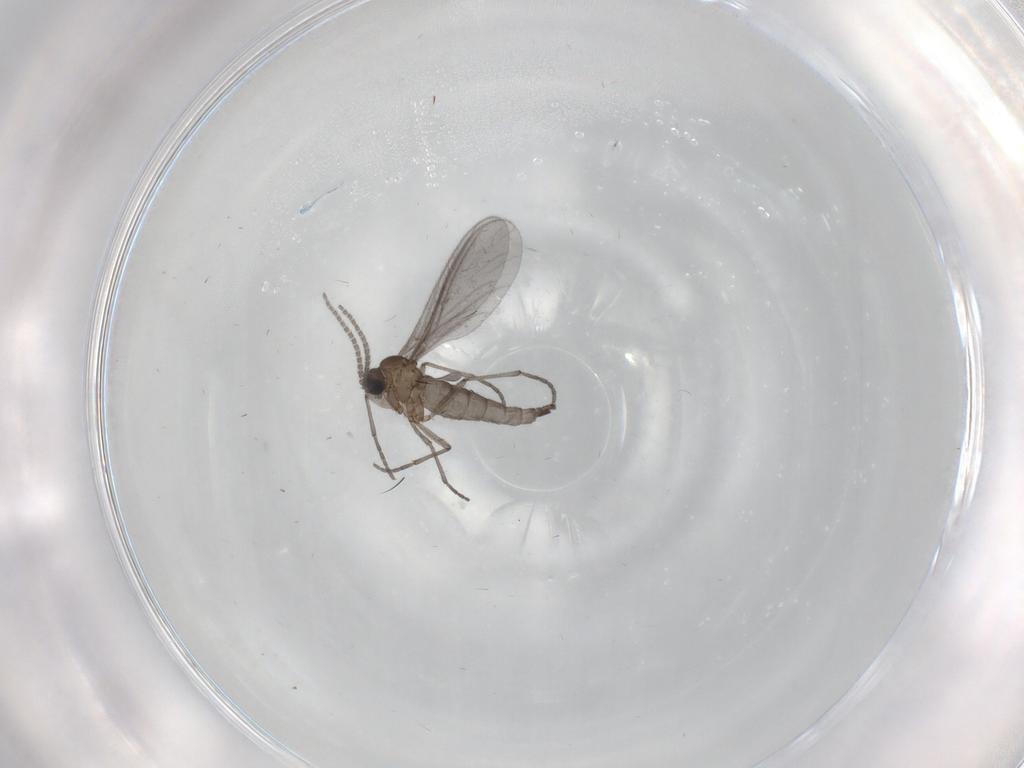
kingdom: Animalia
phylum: Arthropoda
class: Insecta
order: Diptera
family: Sciaridae
